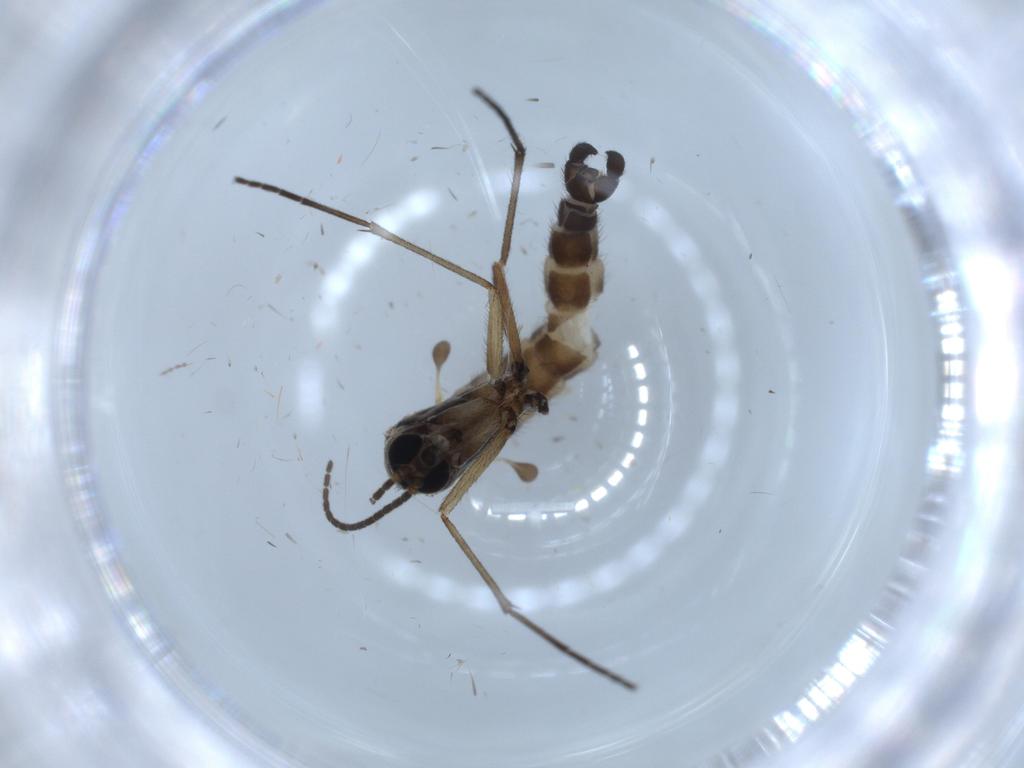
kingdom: Animalia
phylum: Arthropoda
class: Insecta
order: Diptera
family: Sciaridae
